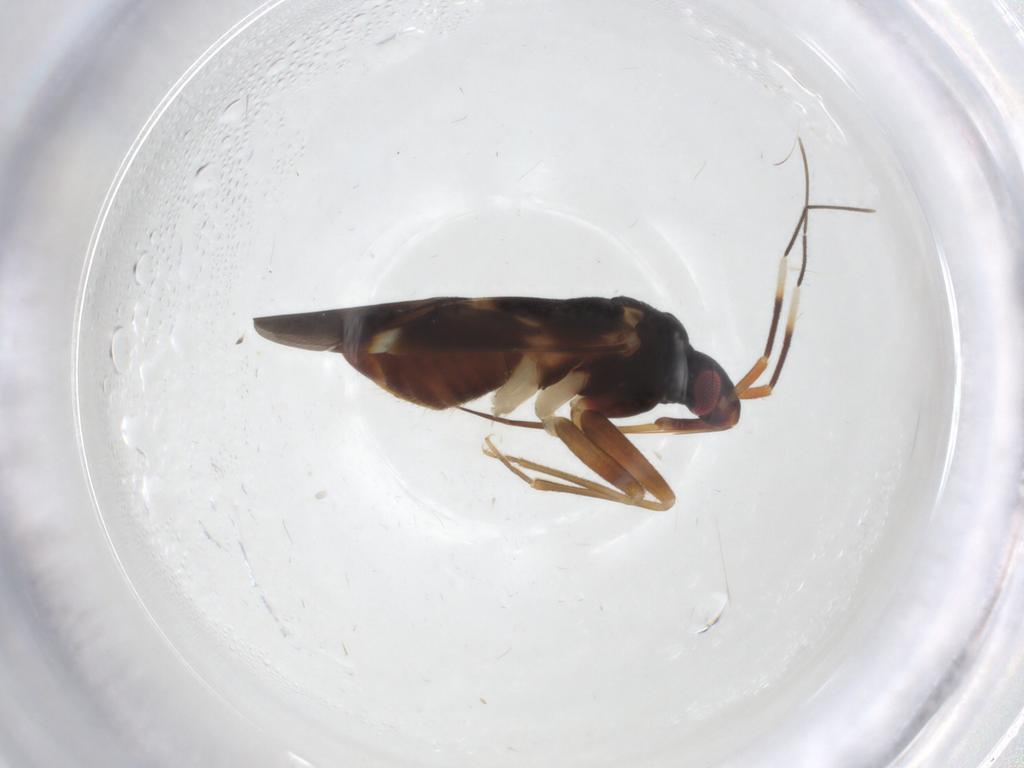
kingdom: Animalia
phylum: Arthropoda
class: Insecta
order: Hemiptera
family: Miridae
